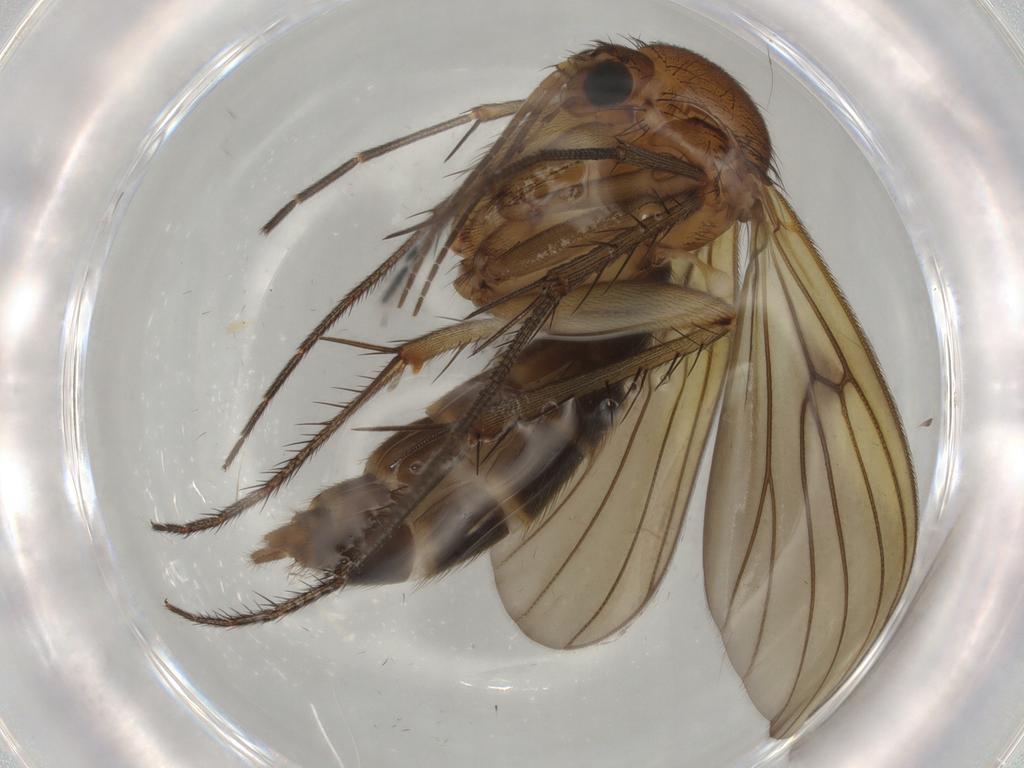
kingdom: Animalia
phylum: Arthropoda
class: Insecta
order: Diptera
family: Mycetophilidae
